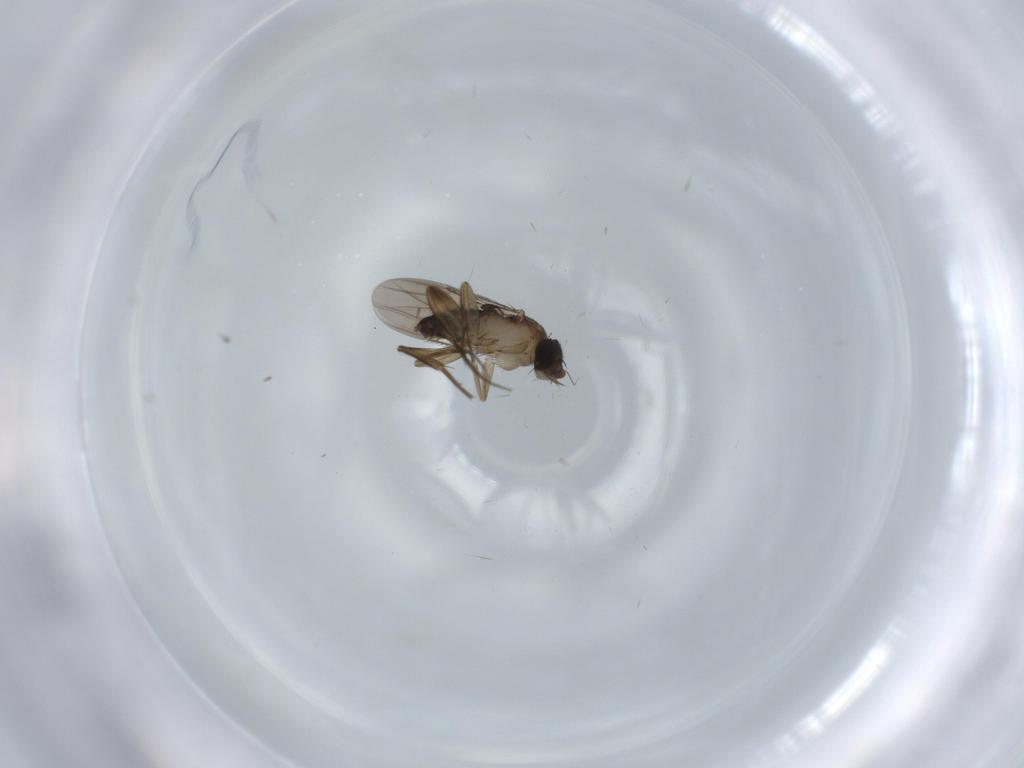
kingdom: Animalia
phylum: Arthropoda
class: Insecta
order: Diptera
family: Phoridae
